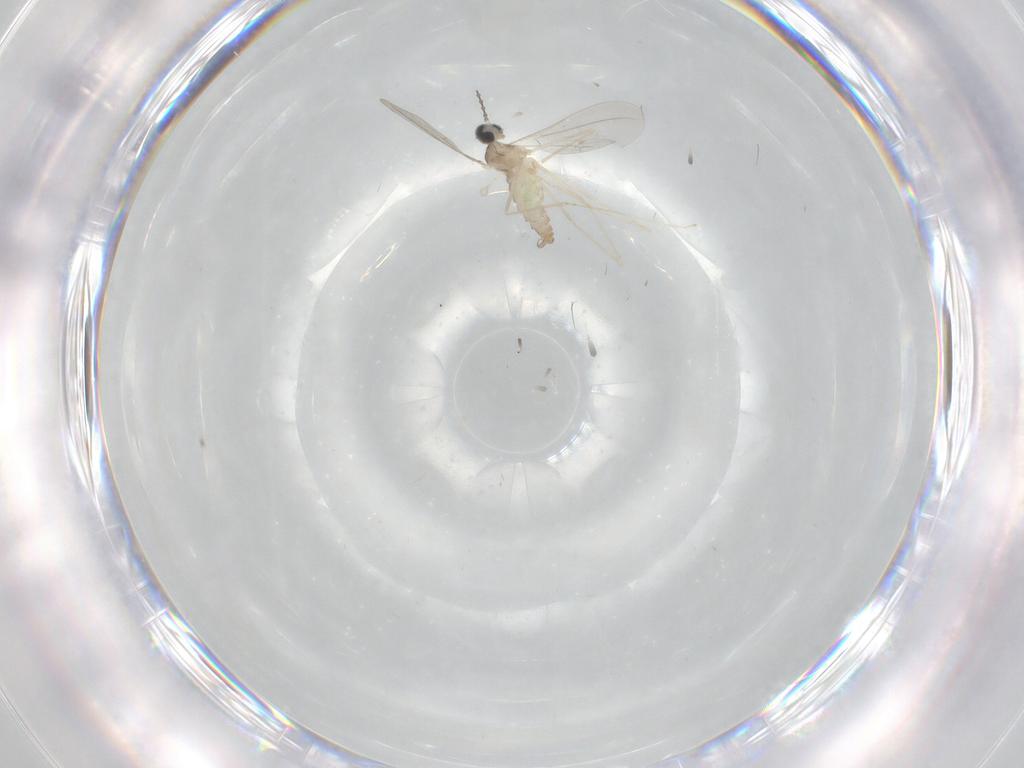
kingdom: Animalia
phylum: Arthropoda
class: Insecta
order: Diptera
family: Cecidomyiidae
